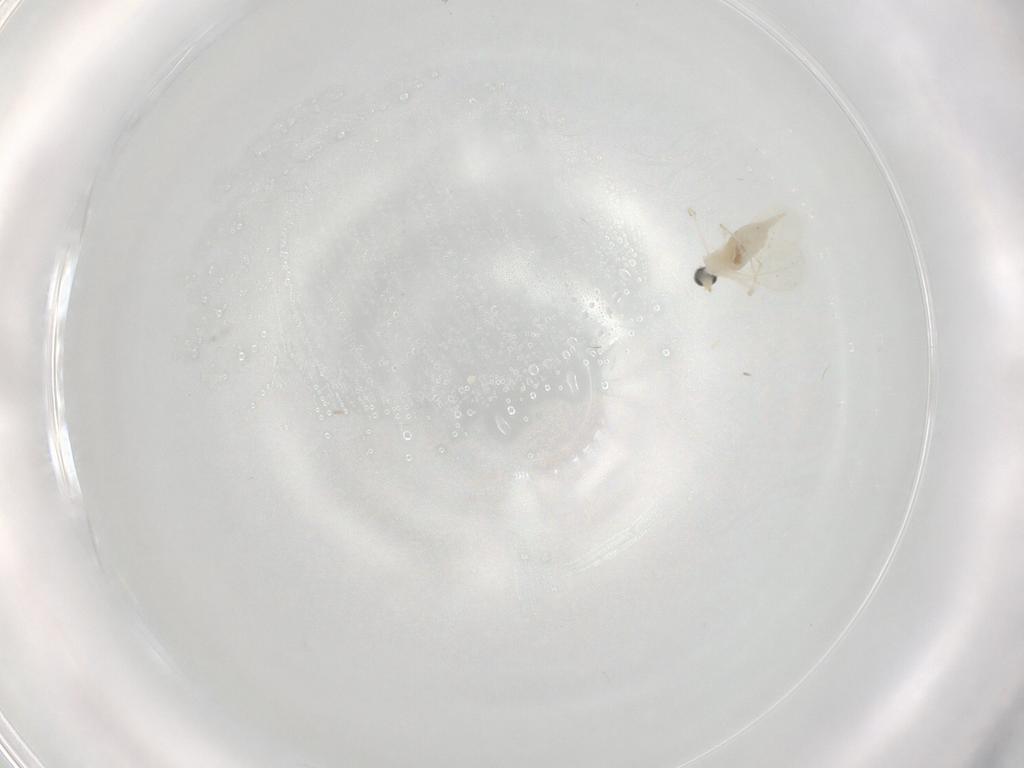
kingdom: Animalia
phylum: Arthropoda
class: Insecta
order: Diptera
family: Cecidomyiidae
